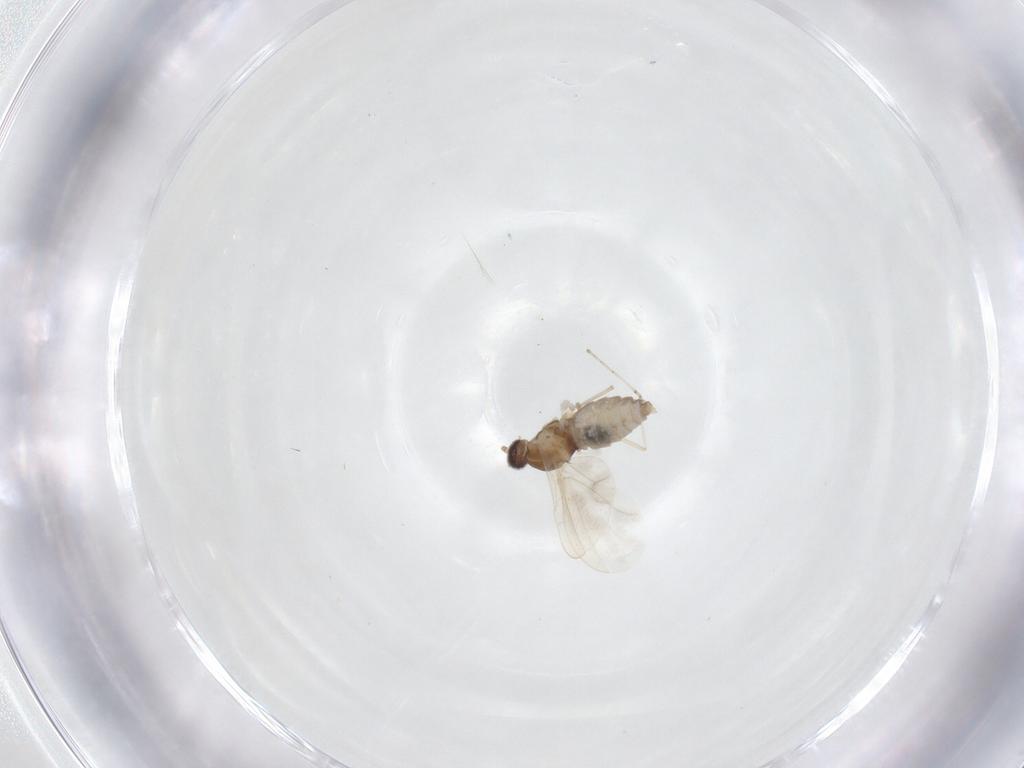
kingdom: Animalia
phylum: Arthropoda
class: Insecta
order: Diptera
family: Cecidomyiidae
